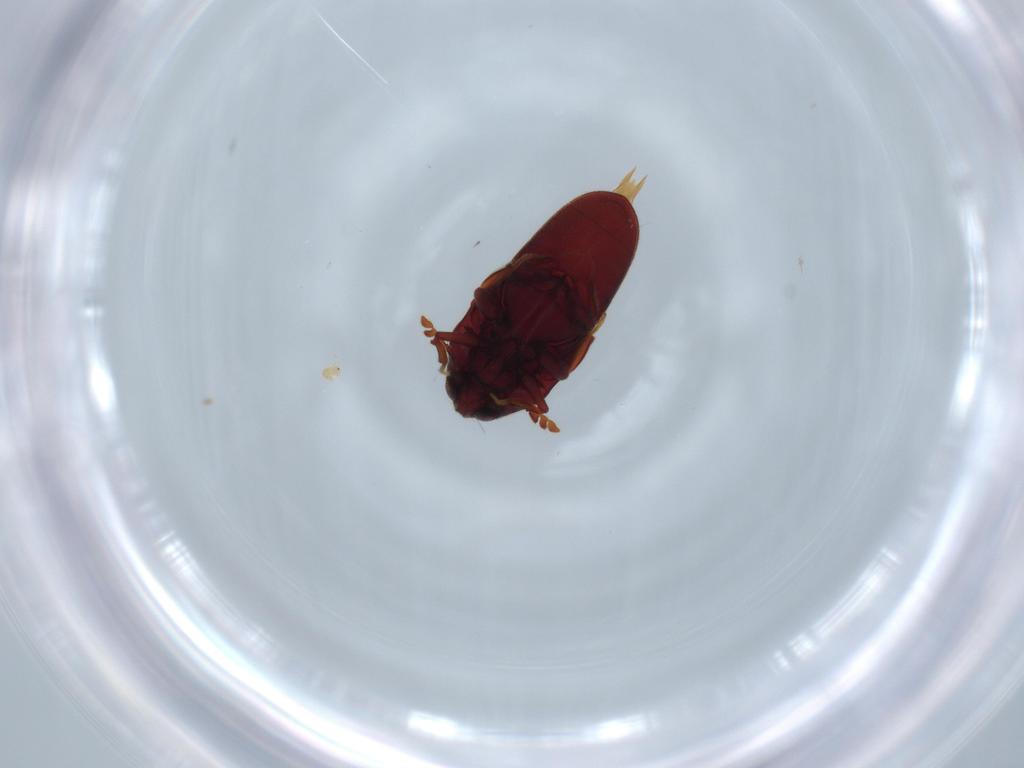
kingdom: Animalia
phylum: Arthropoda
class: Insecta
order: Coleoptera
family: Throscidae
